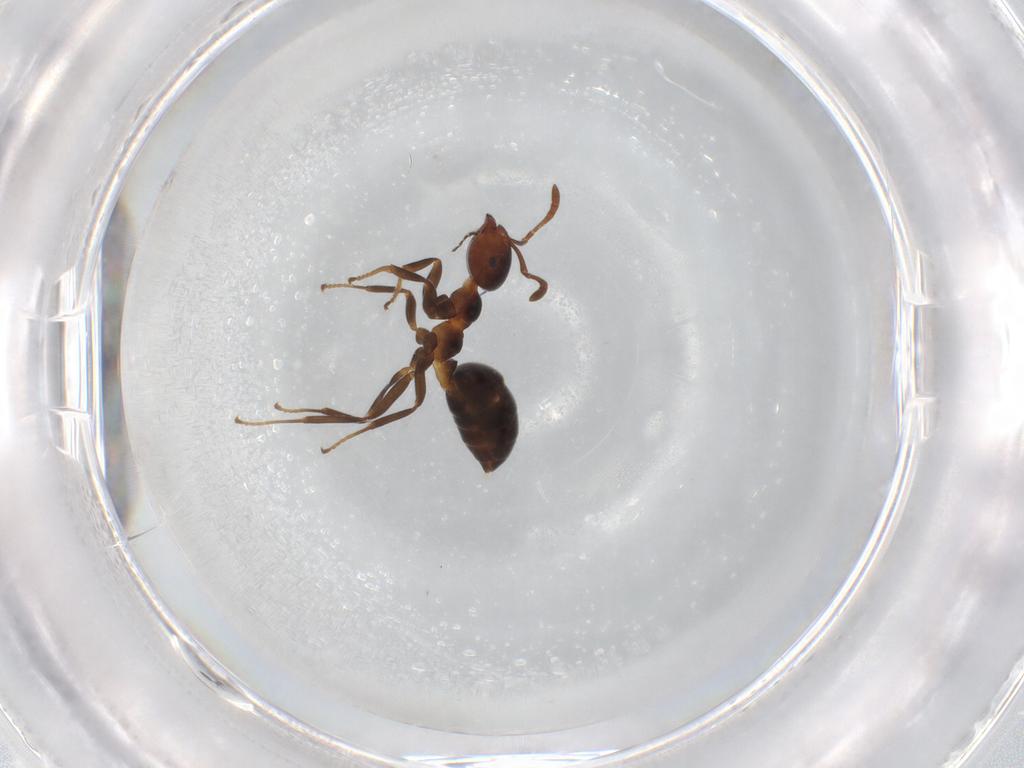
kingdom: Animalia
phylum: Arthropoda
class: Insecta
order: Hymenoptera
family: Formicidae
